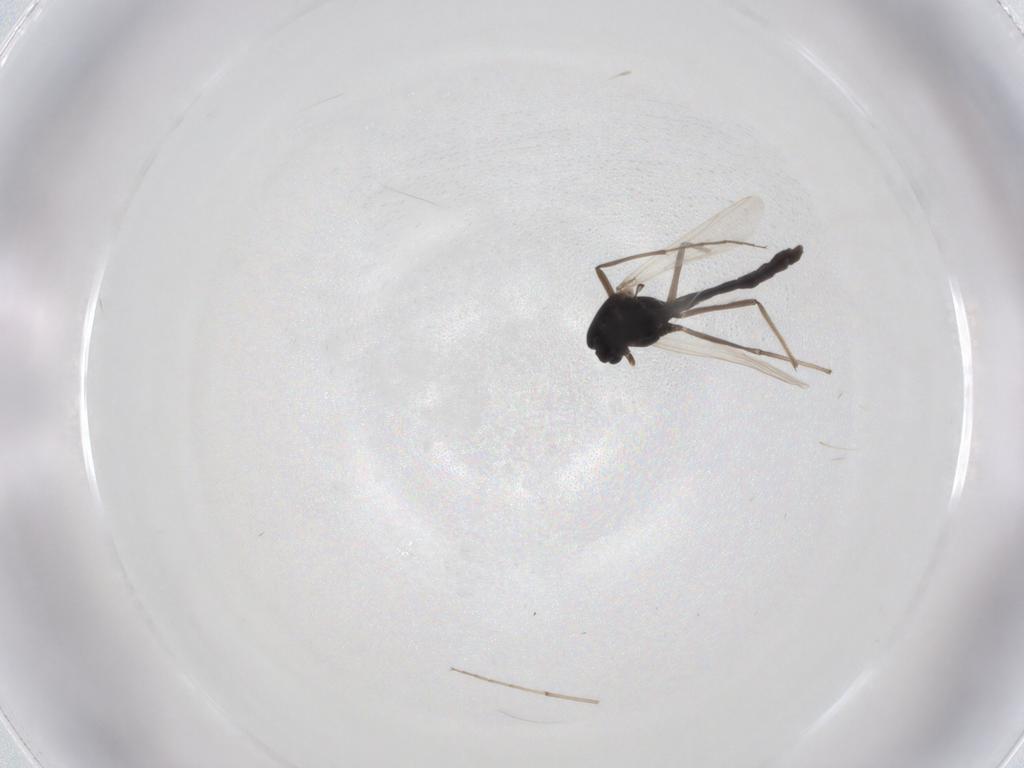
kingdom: Animalia
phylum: Arthropoda
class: Insecta
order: Diptera
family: Chironomidae
